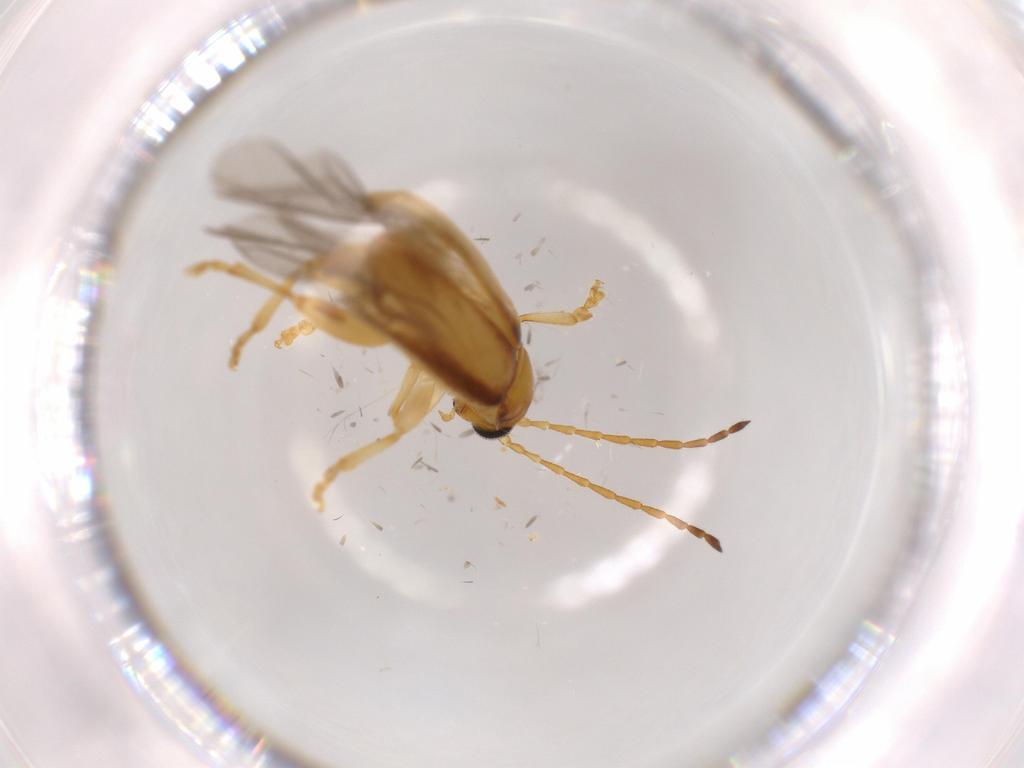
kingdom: Animalia
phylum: Arthropoda
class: Insecta
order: Coleoptera
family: Chrysomelidae
